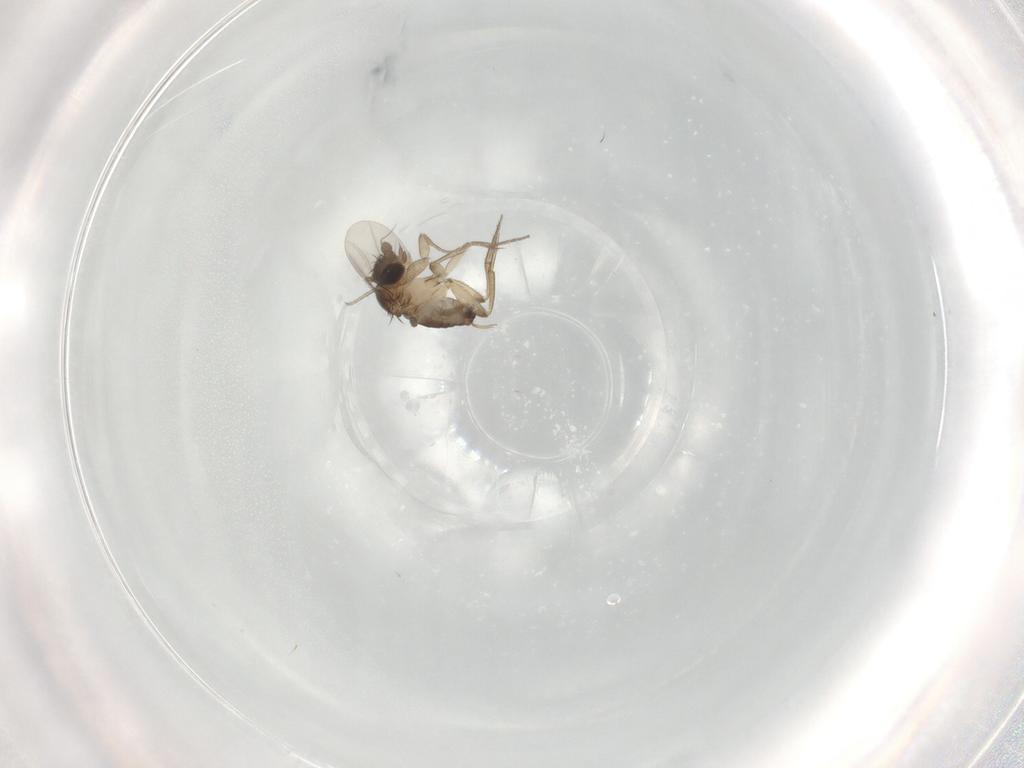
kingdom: Animalia
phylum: Arthropoda
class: Insecta
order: Diptera
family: Phoridae
